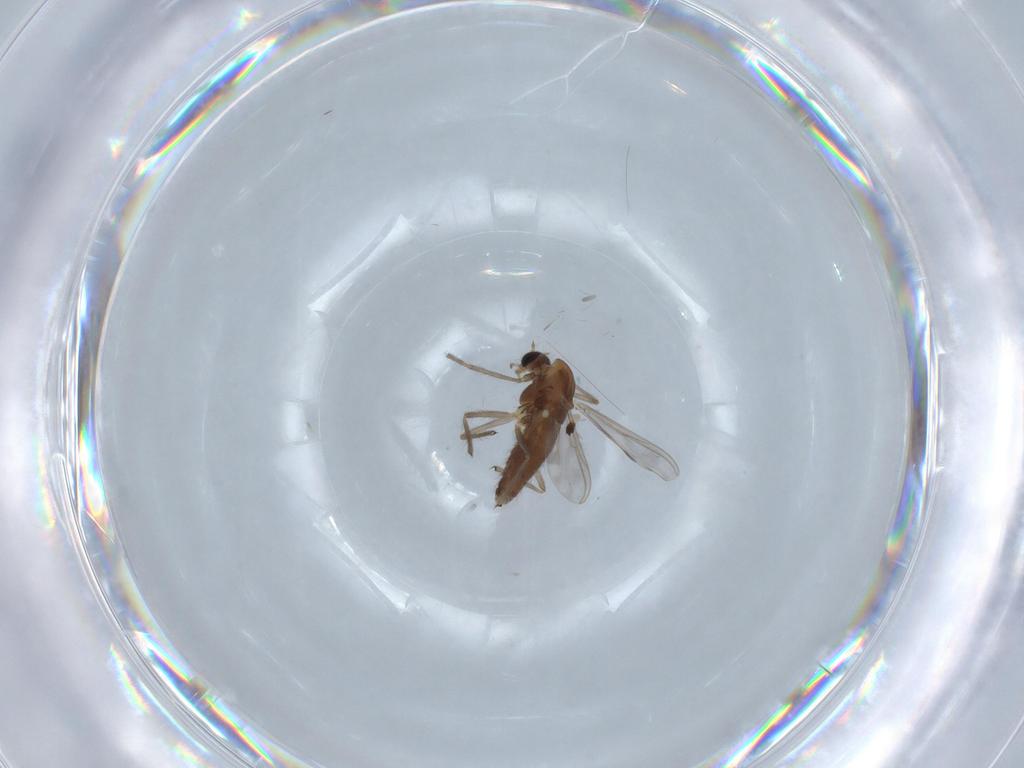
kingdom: Animalia
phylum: Arthropoda
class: Insecta
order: Diptera
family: Chironomidae
